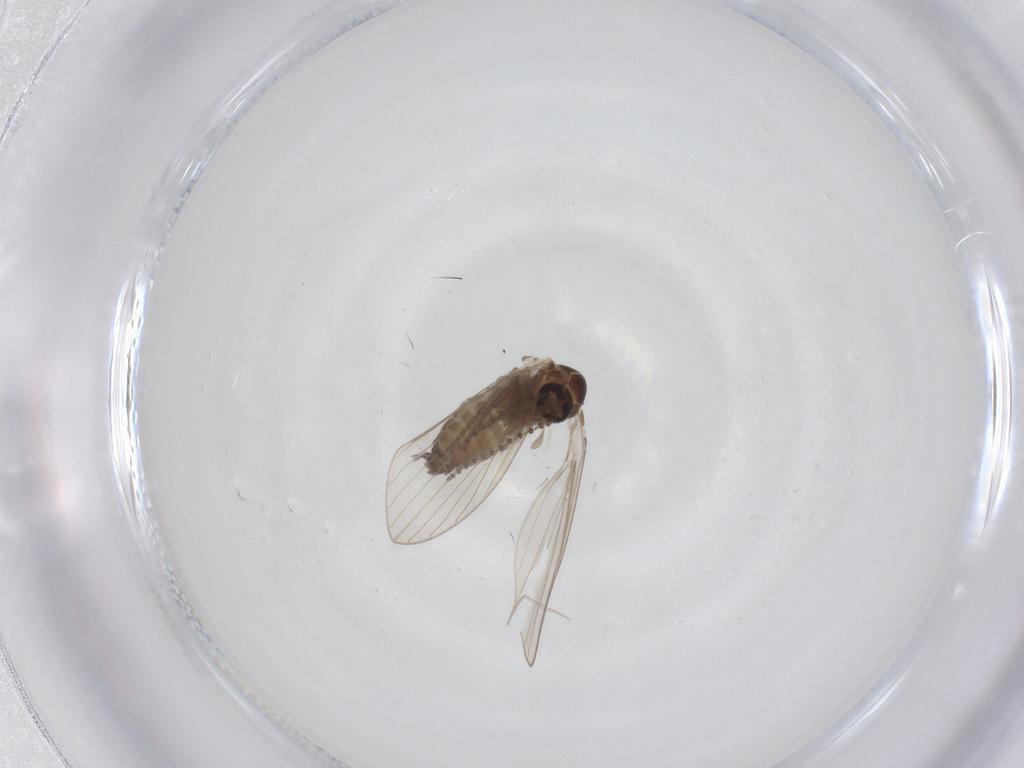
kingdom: Animalia
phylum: Arthropoda
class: Insecta
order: Diptera
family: Psychodidae
